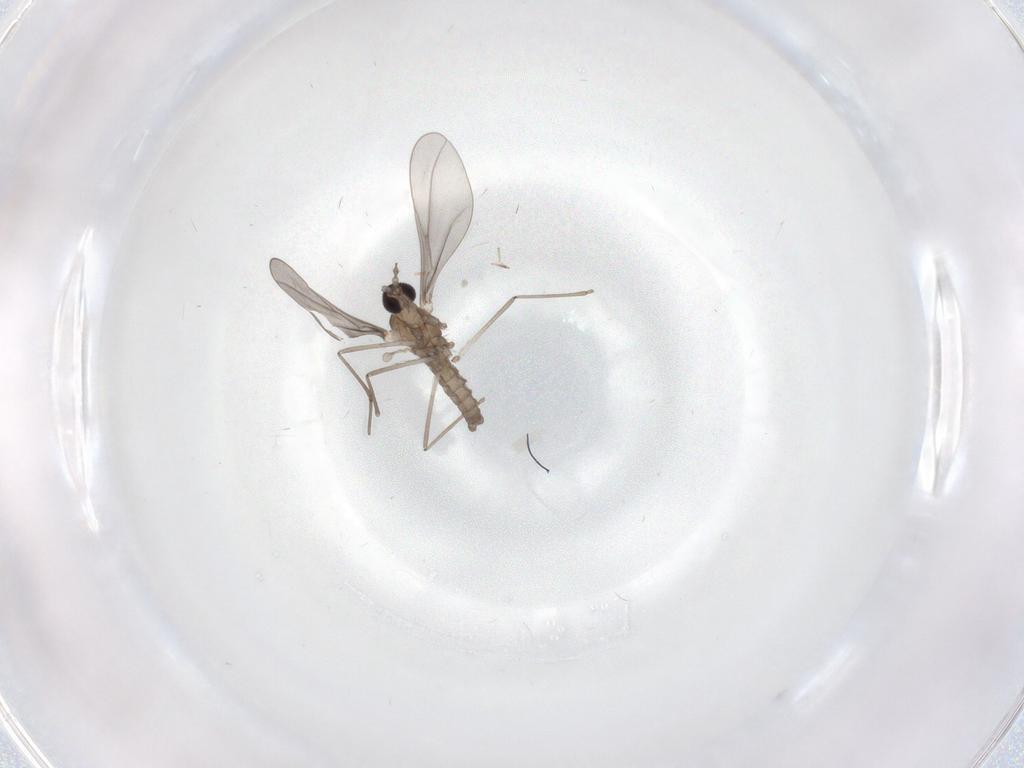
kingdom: Animalia
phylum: Arthropoda
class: Insecta
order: Diptera
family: Cecidomyiidae
